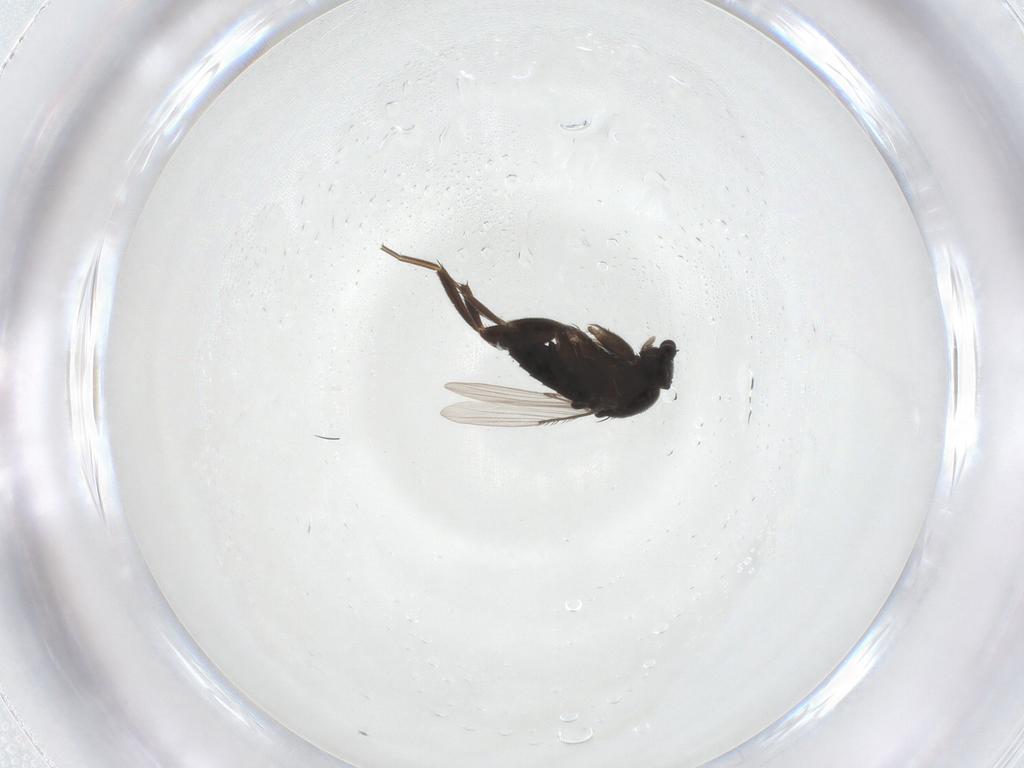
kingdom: Animalia
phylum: Arthropoda
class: Insecta
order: Diptera
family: Phoridae
